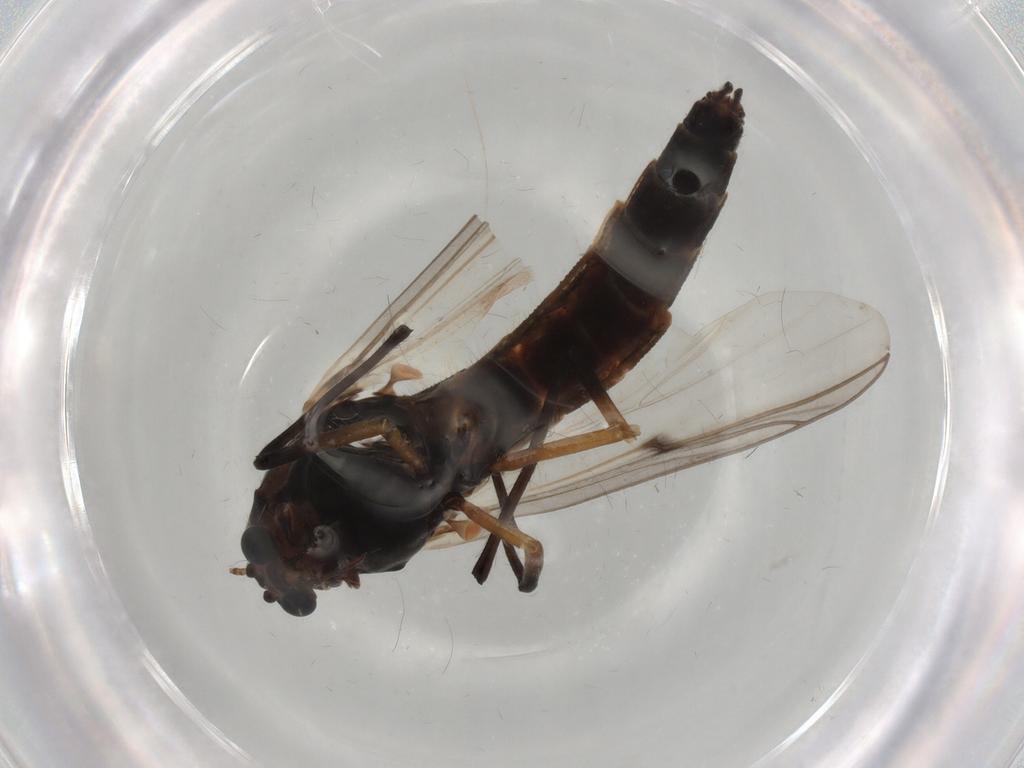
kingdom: Animalia
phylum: Arthropoda
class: Insecta
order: Diptera
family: Chironomidae
